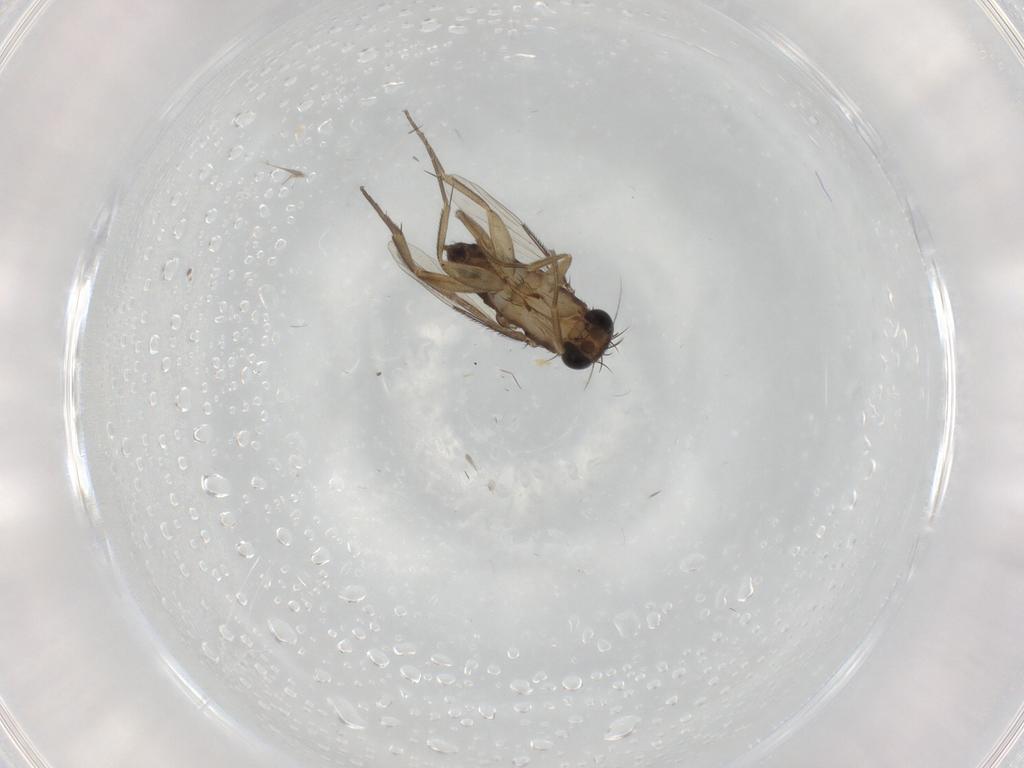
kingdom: Animalia
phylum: Arthropoda
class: Insecta
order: Diptera
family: Phoridae
